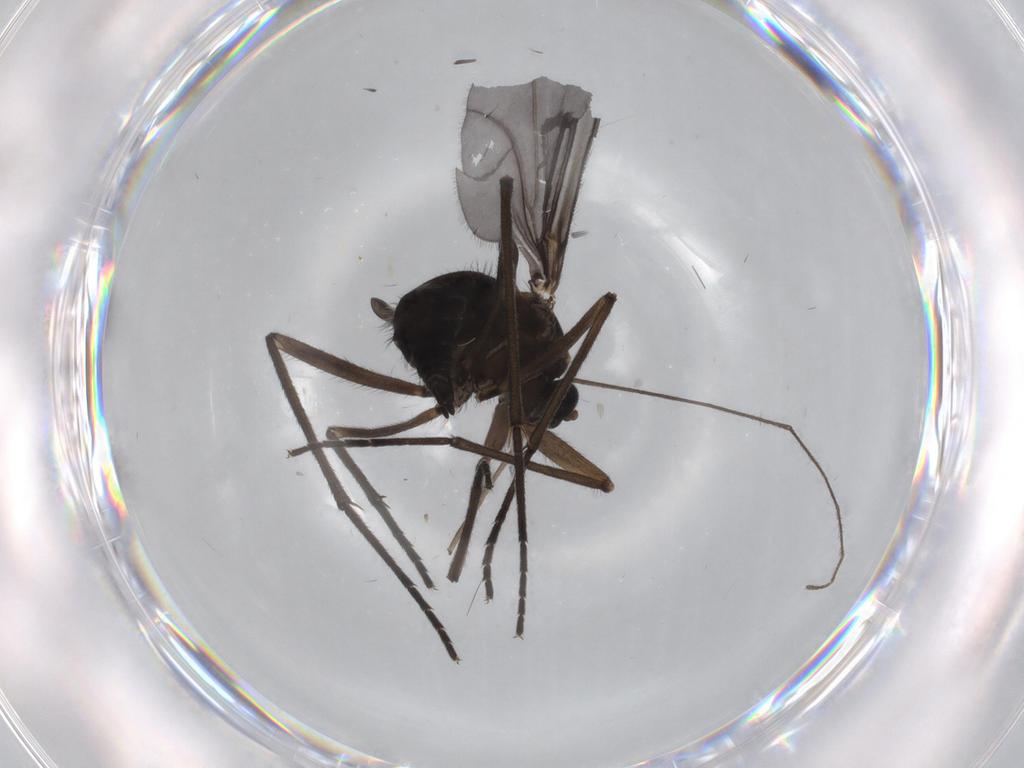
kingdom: Animalia
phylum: Arthropoda
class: Insecta
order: Diptera
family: Sciaridae
